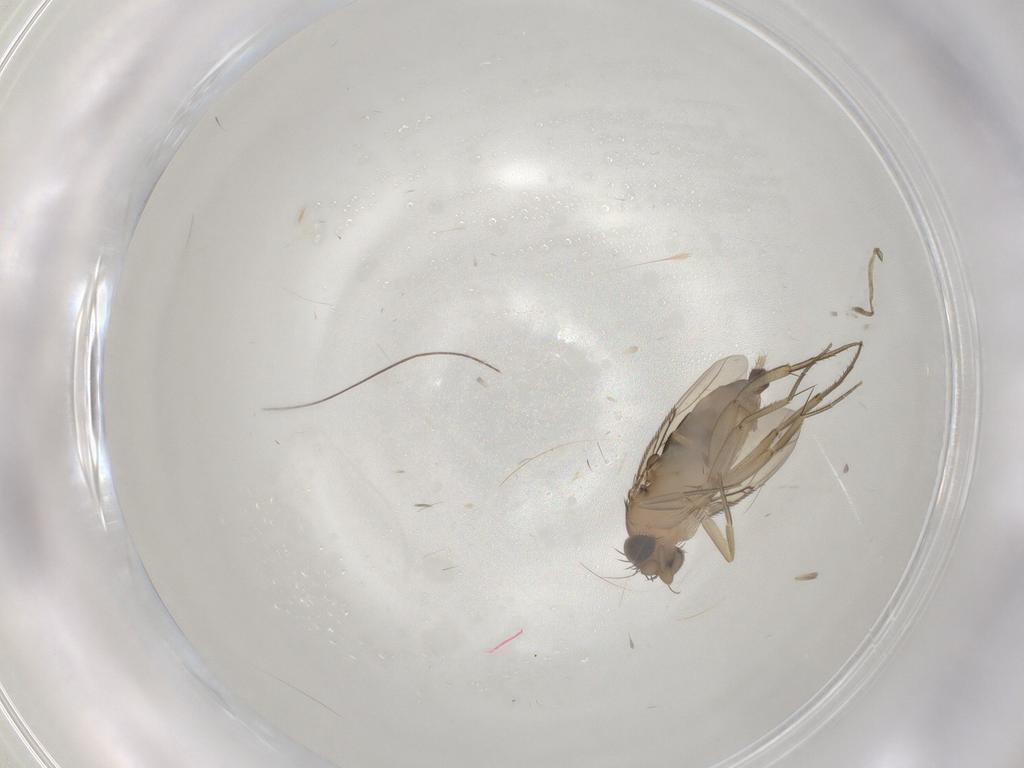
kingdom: Animalia
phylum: Arthropoda
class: Insecta
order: Diptera
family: Phoridae
